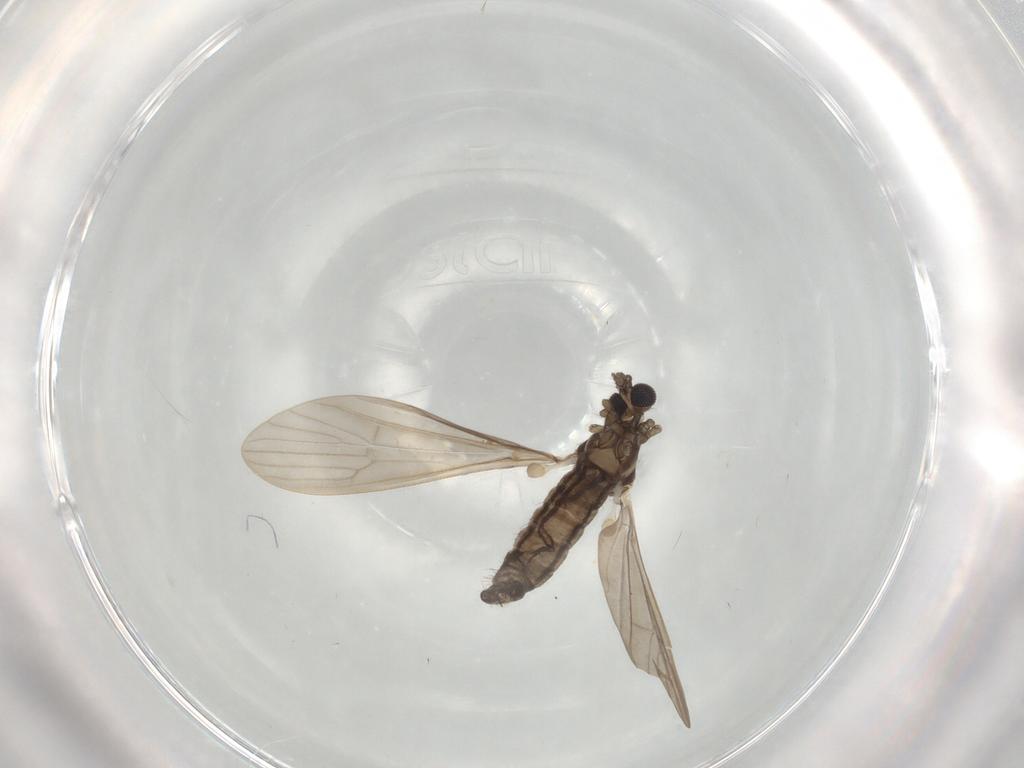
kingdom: Animalia
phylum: Arthropoda
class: Insecta
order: Diptera
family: Limoniidae
